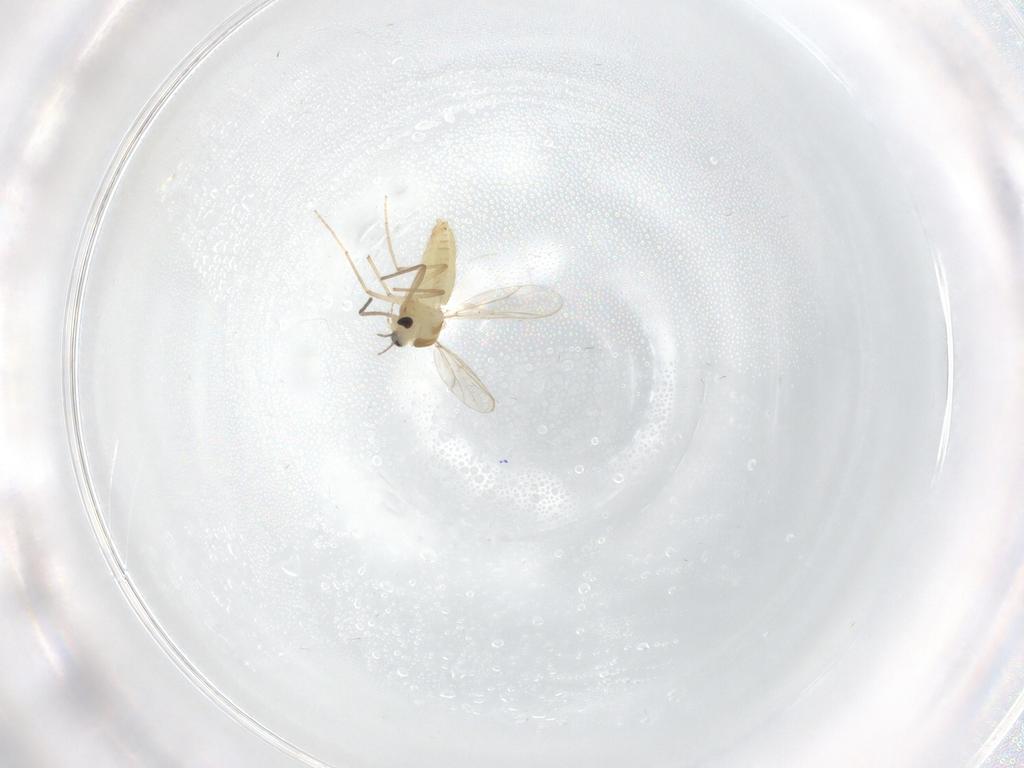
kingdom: Animalia
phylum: Arthropoda
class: Insecta
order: Diptera
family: Chironomidae
